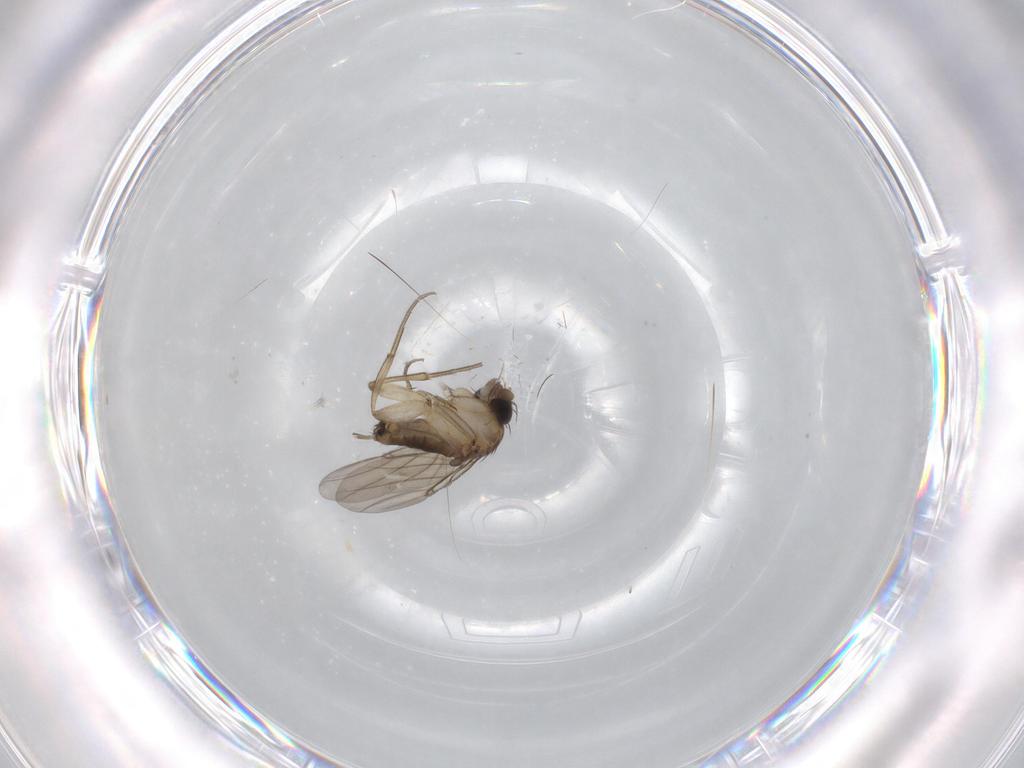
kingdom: Animalia
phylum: Arthropoda
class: Insecta
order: Diptera
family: Phoridae
